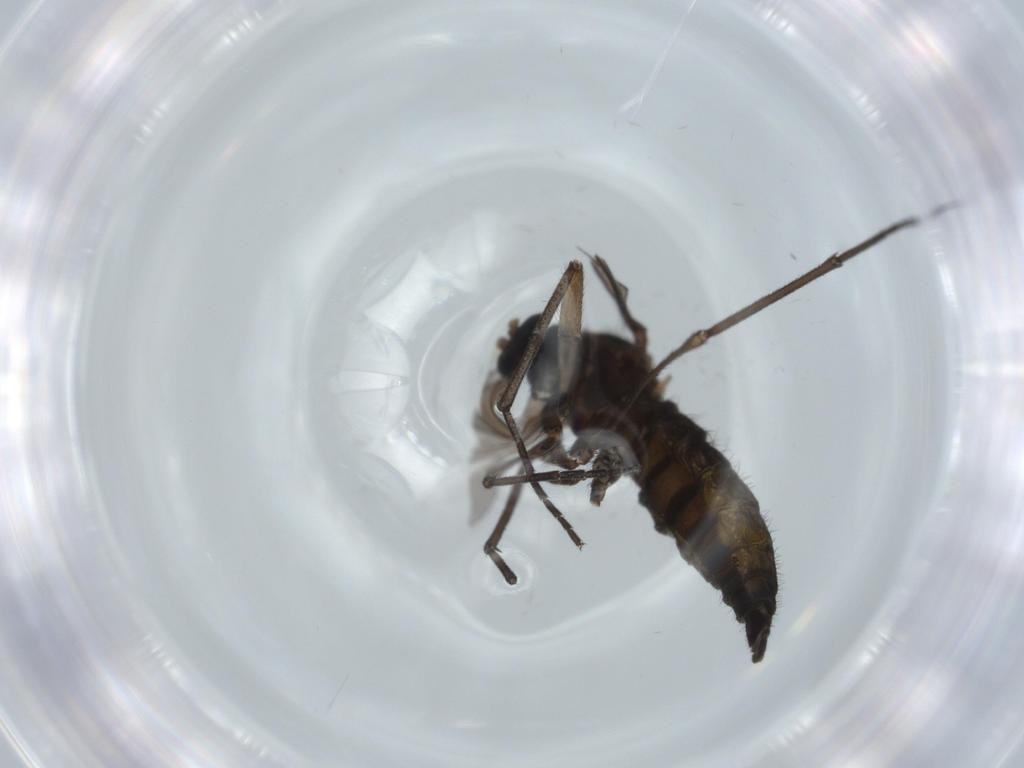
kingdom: Animalia
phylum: Arthropoda
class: Insecta
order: Diptera
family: Sciaridae
